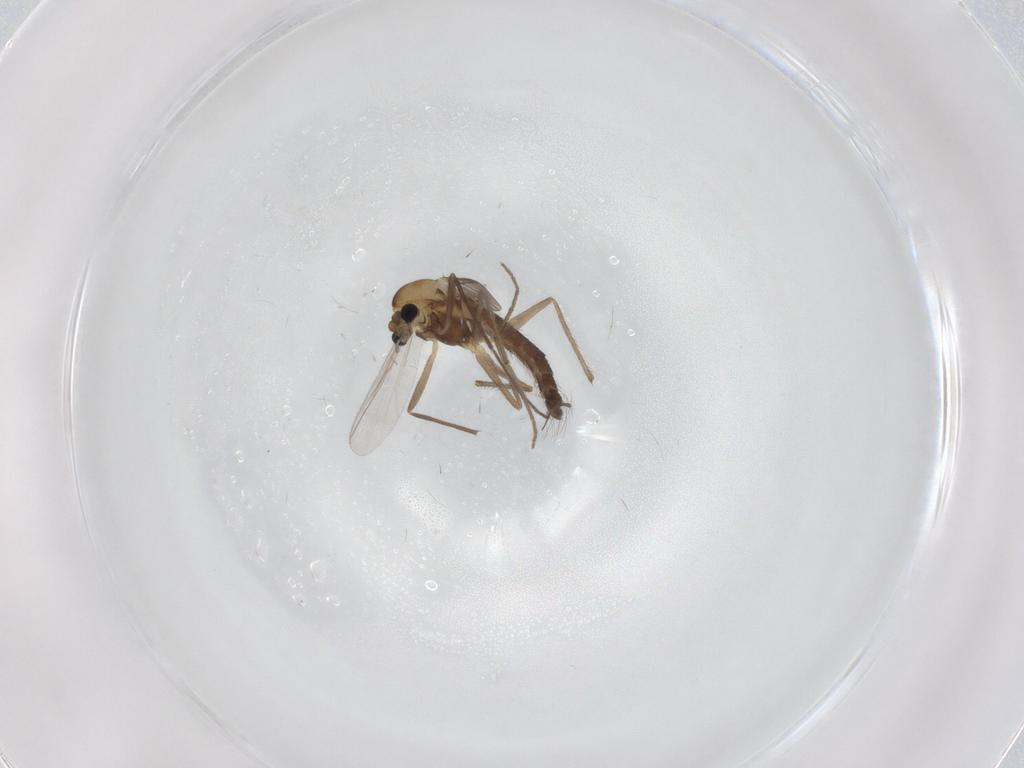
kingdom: Animalia
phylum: Arthropoda
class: Insecta
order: Diptera
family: Chironomidae
